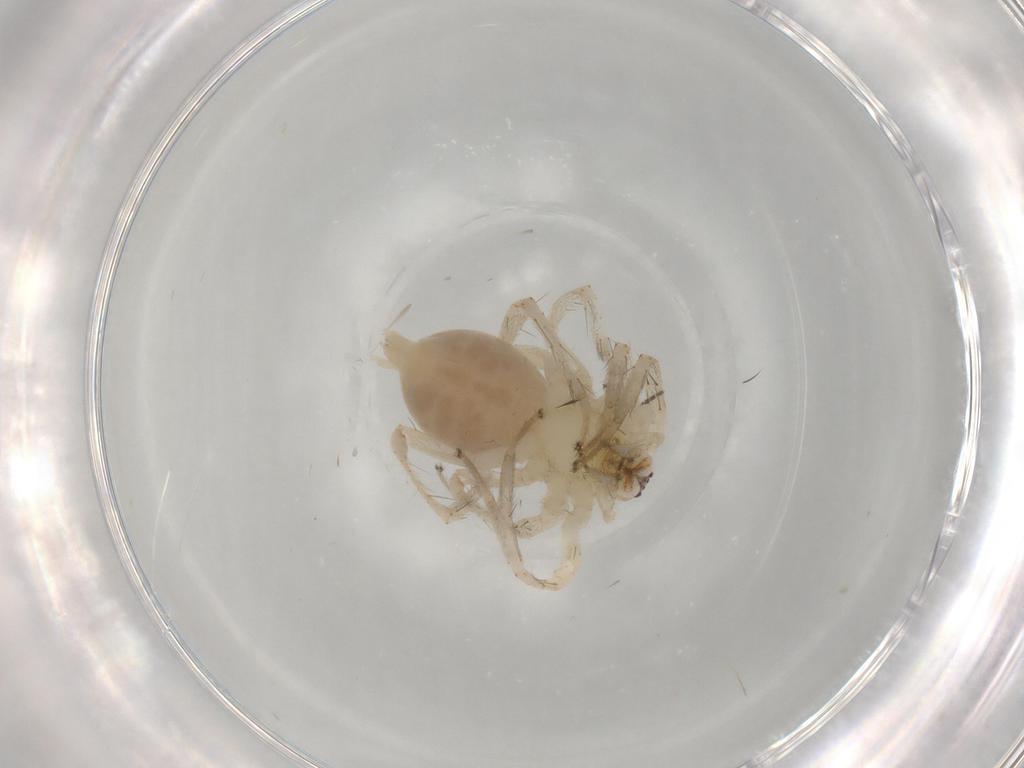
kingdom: Animalia
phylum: Arthropoda
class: Arachnida
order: Araneae
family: Anyphaenidae
